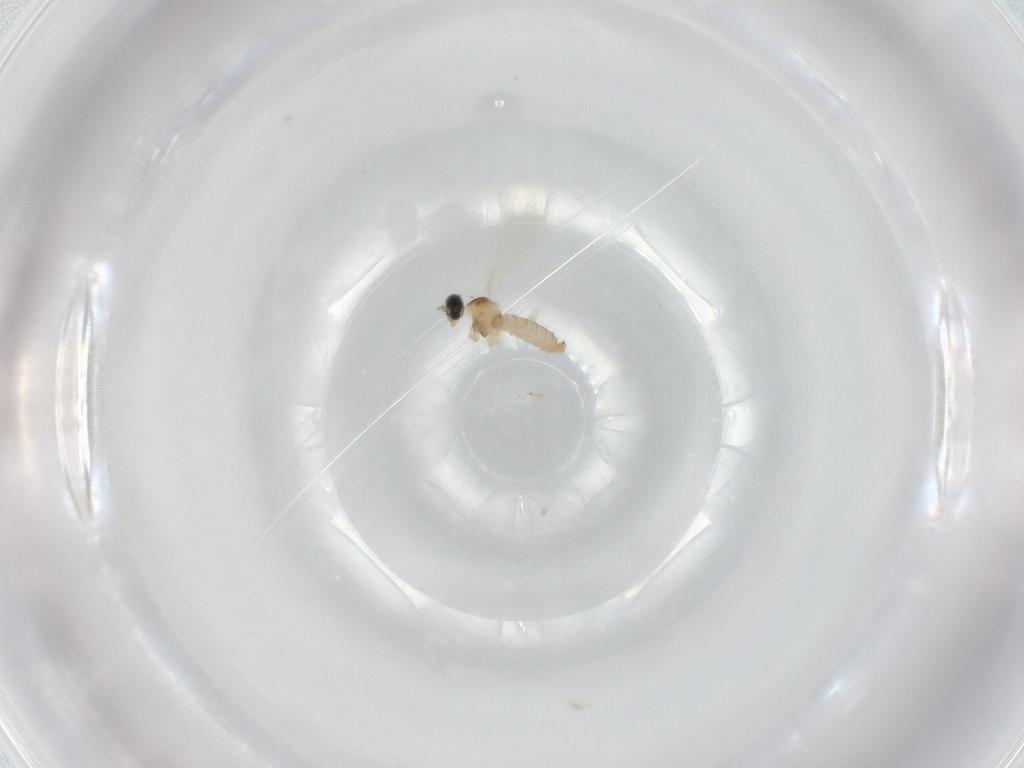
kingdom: Animalia
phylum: Arthropoda
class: Insecta
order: Diptera
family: Cecidomyiidae
